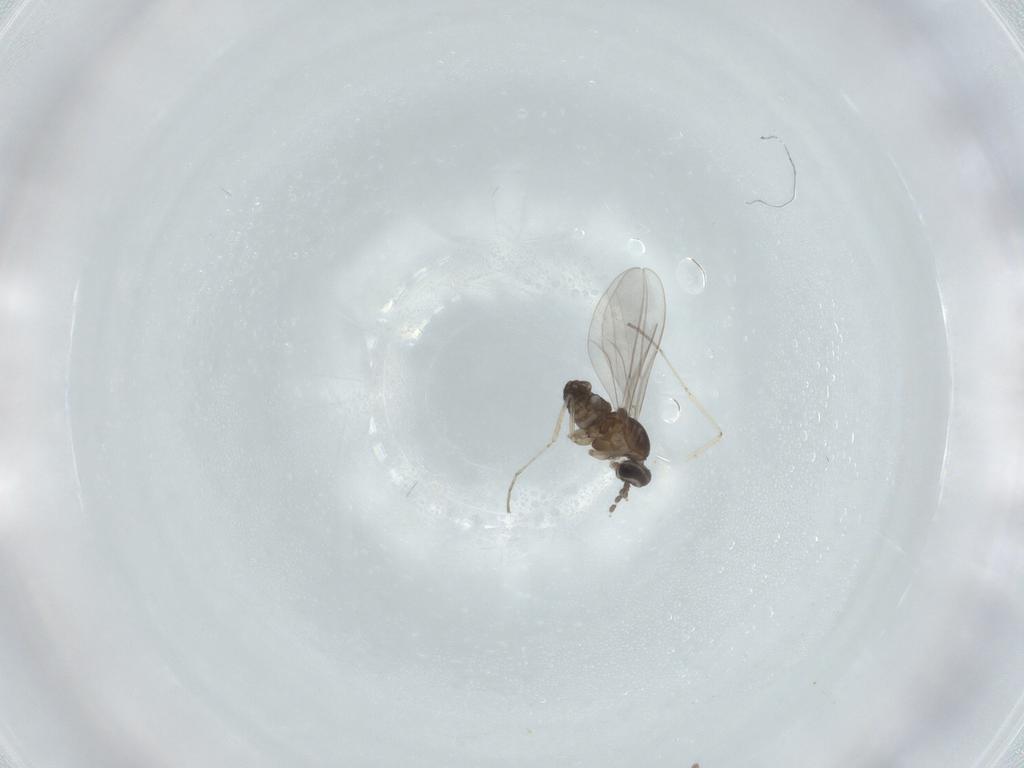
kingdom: Animalia
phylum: Arthropoda
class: Insecta
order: Diptera
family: Cecidomyiidae
